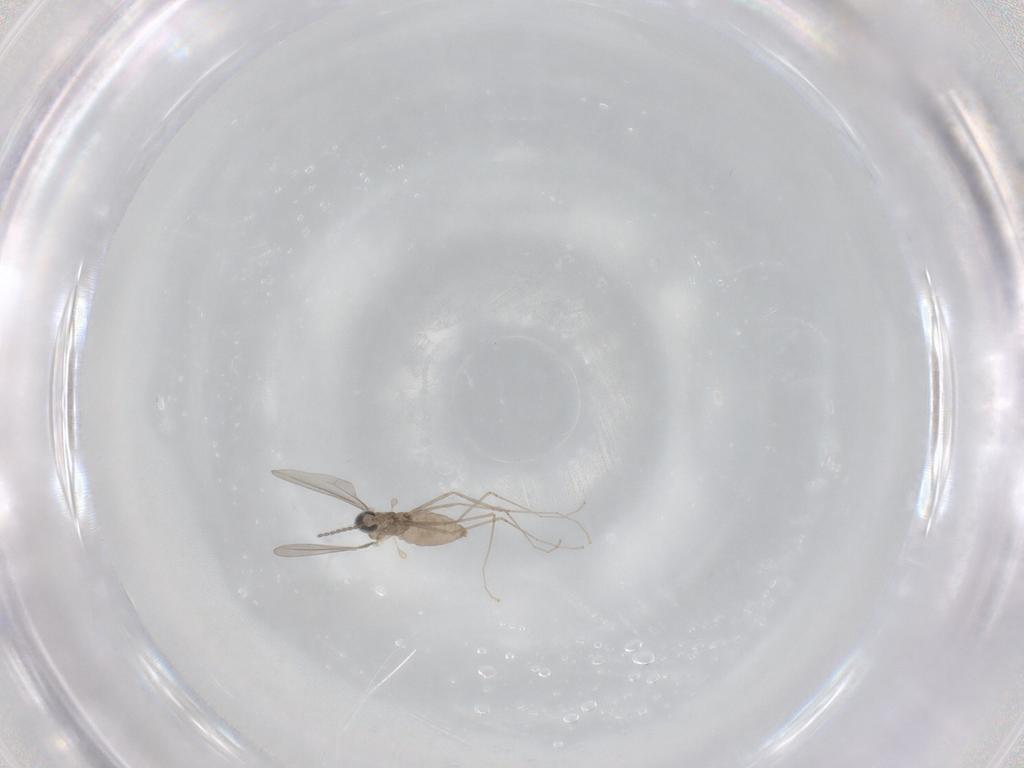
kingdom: Animalia
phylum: Arthropoda
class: Insecta
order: Diptera
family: Cecidomyiidae
